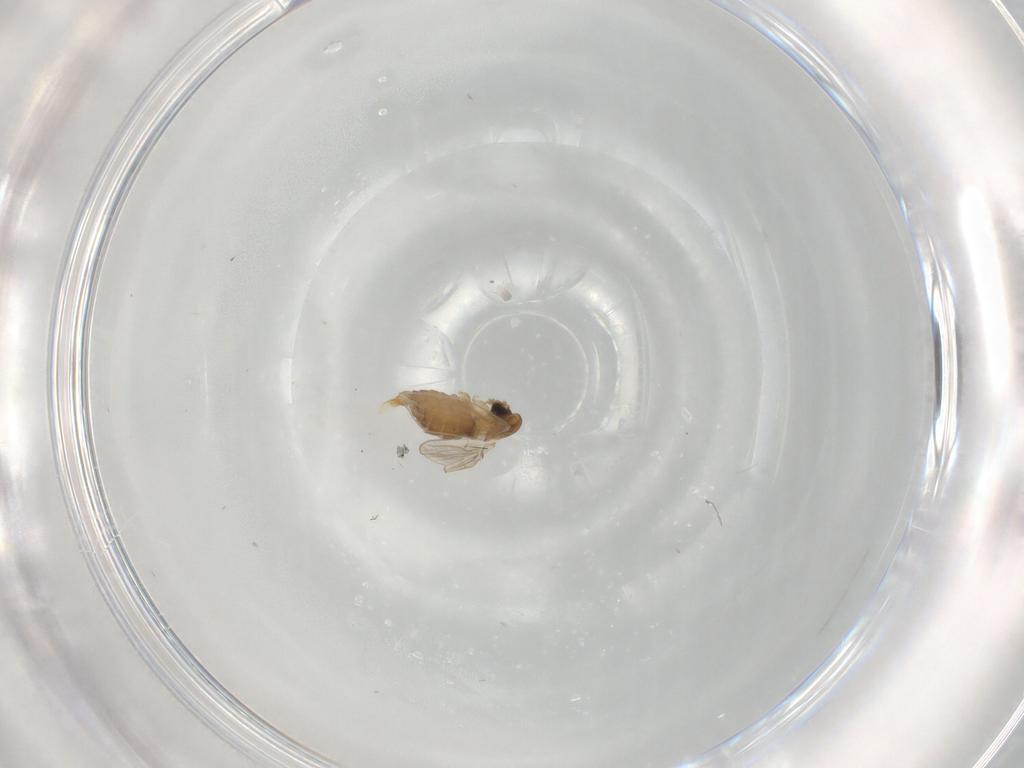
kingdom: Animalia
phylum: Arthropoda
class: Insecta
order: Diptera
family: Psychodidae
